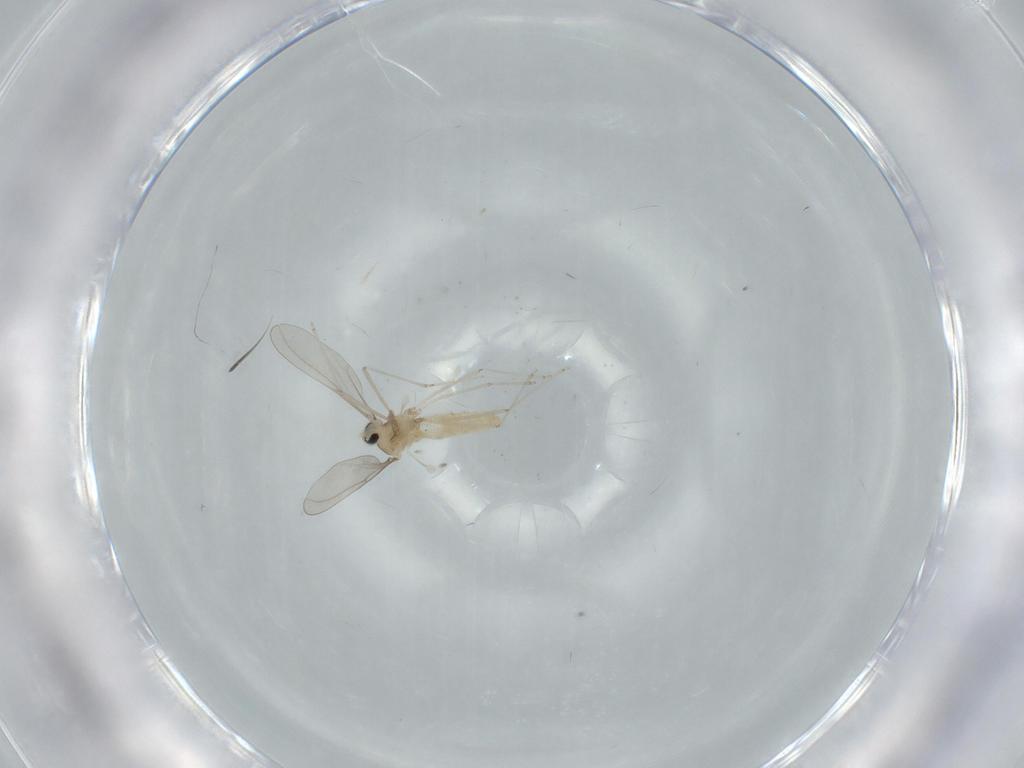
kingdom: Animalia
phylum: Arthropoda
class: Insecta
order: Diptera
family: Cecidomyiidae
